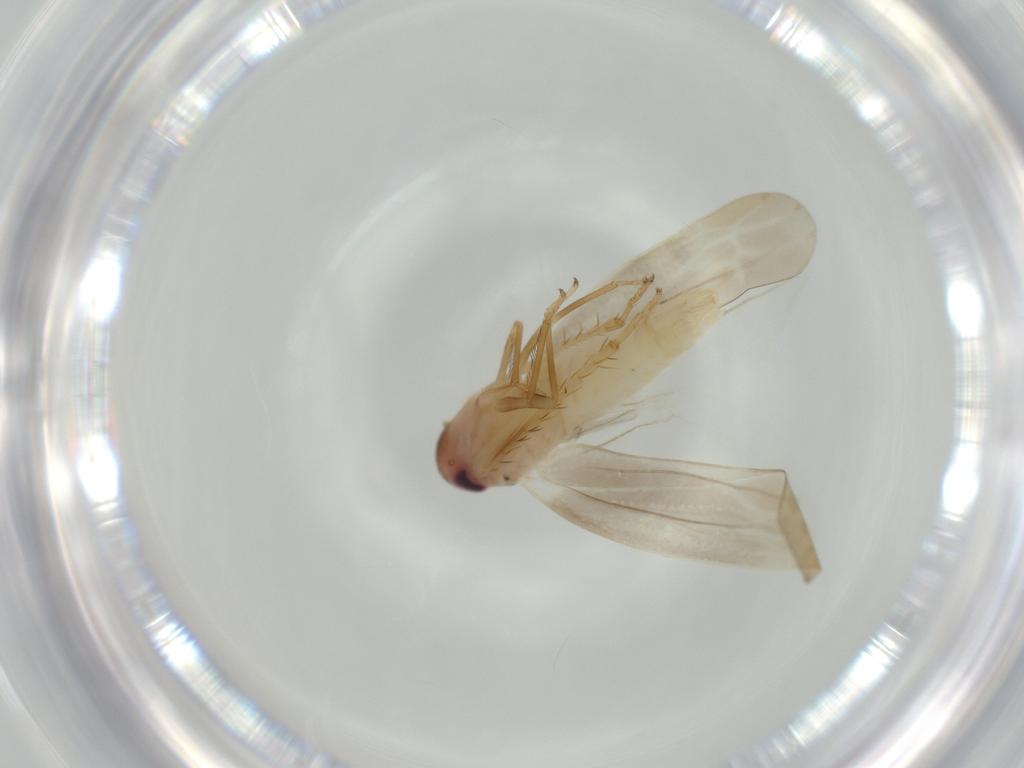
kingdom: Animalia
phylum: Arthropoda
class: Insecta
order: Hemiptera
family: Cicadellidae
